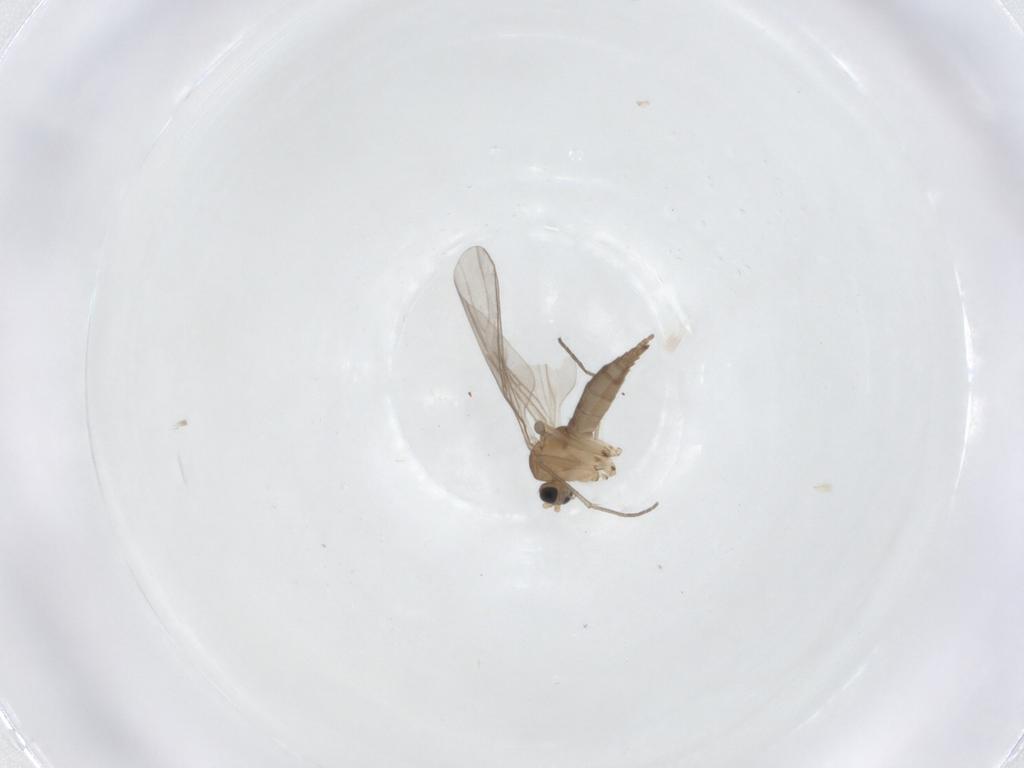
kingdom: Animalia
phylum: Arthropoda
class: Insecta
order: Diptera
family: Sciaridae
